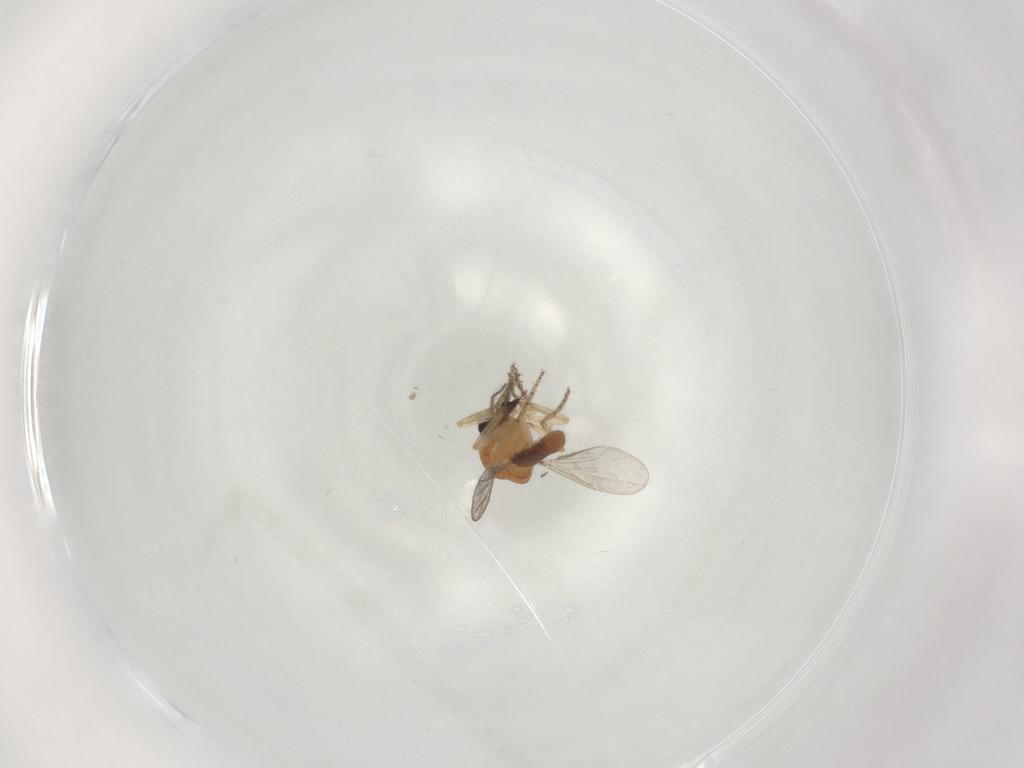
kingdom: Animalia
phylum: Arthropoda
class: Insecta
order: Diptera
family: Ceratopogonidae
